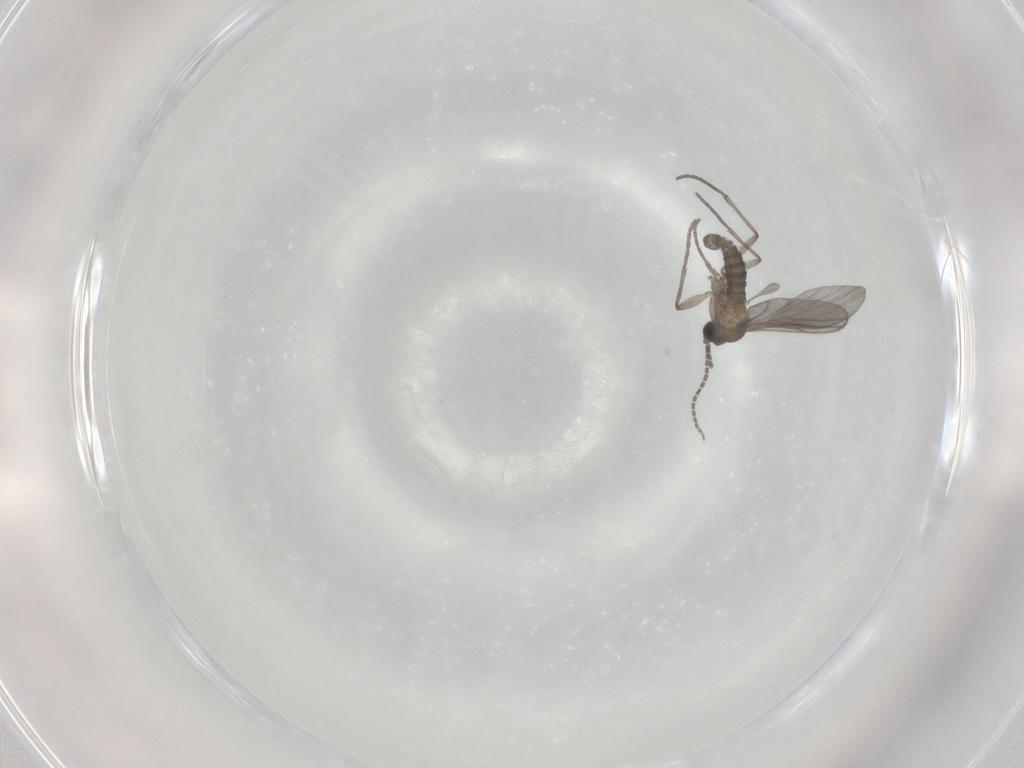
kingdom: Animalia
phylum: Arthropoda
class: Insecta
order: Diptera
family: Sciaridae
